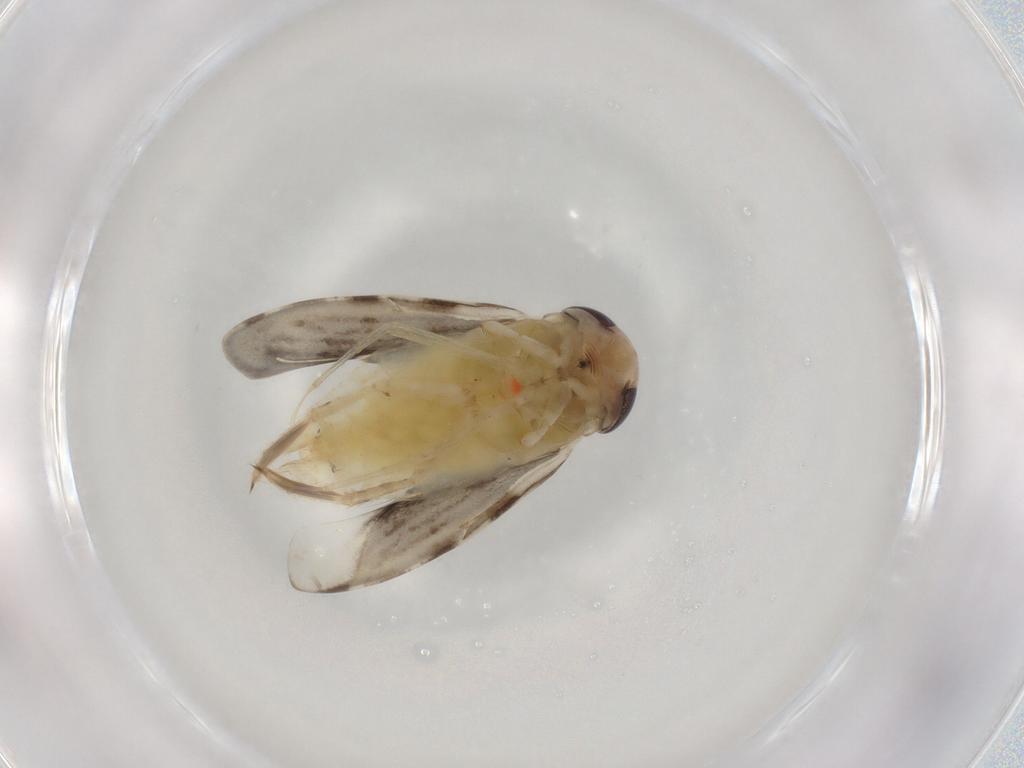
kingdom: Animalia
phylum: Arthropoda
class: Insecta
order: Hemiptera
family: Corixidae
